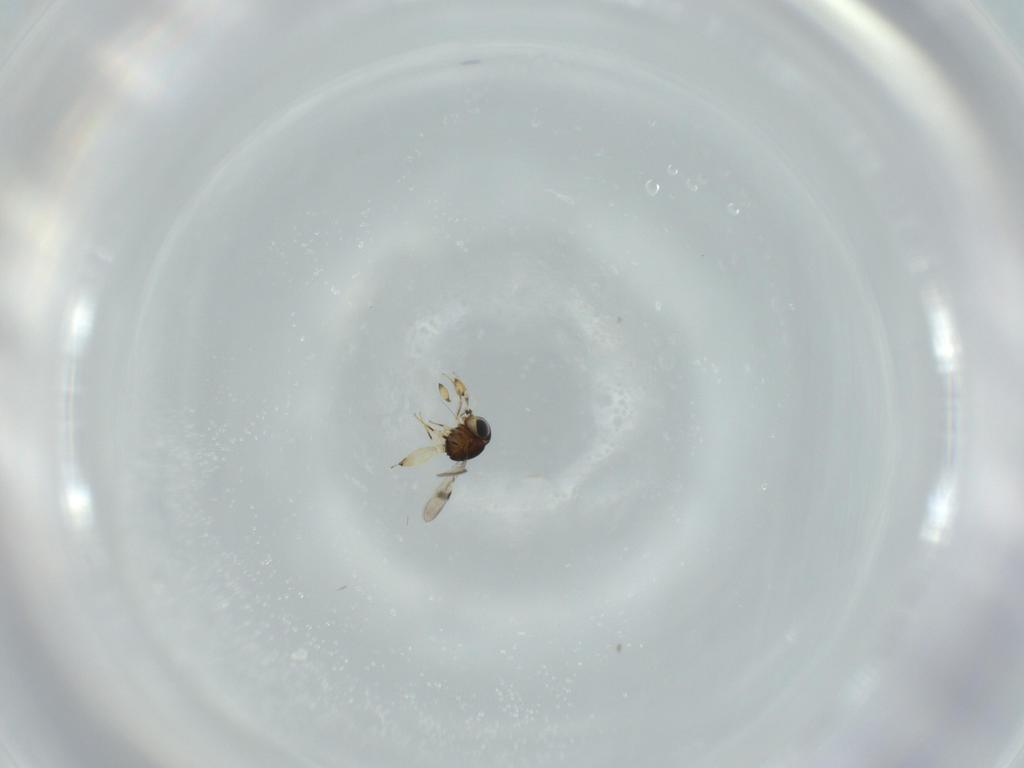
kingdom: Animalia
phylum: Arthropoda
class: Insecta
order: Hymenoptera
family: Scelionidae
